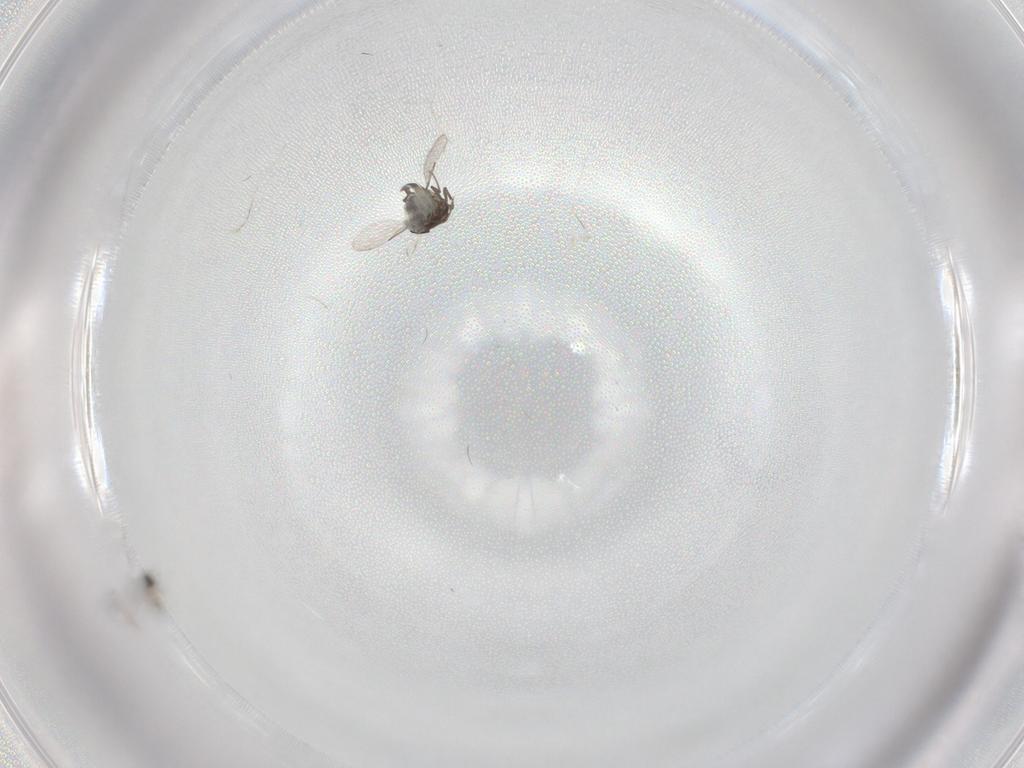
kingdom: Animalia
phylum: Arthropoda
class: Insecta
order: Diptera
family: Ceratopogonidae
